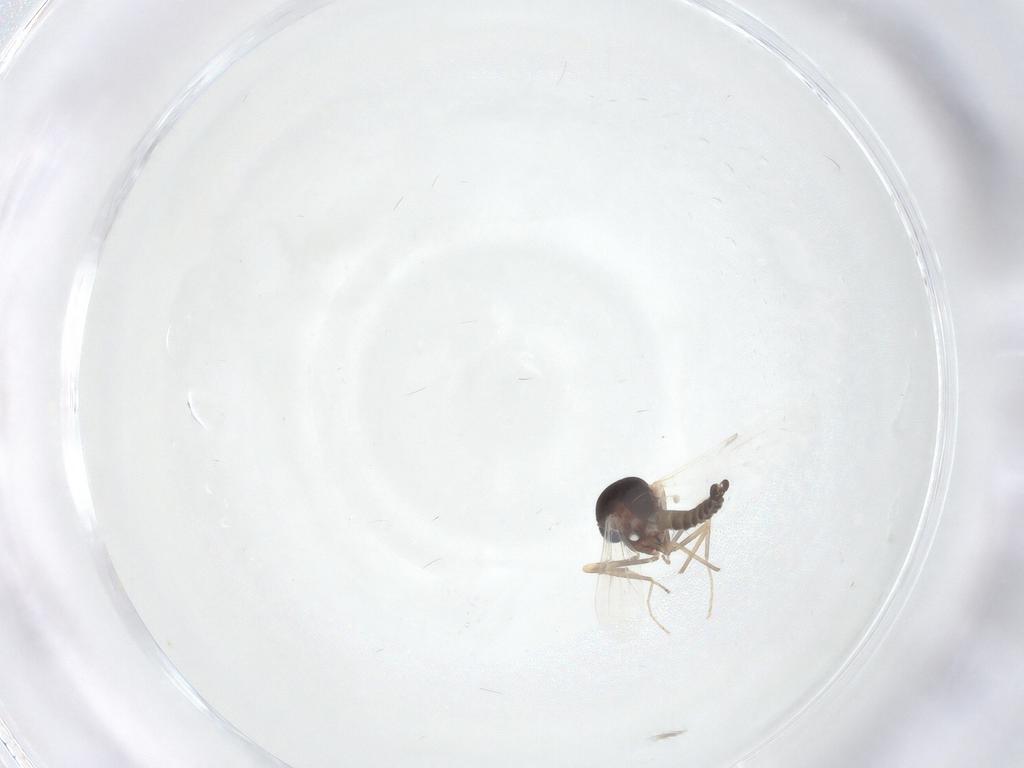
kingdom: Animalia
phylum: Arthropoda
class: Insecta
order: Diptera
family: Ceratopogonidae
